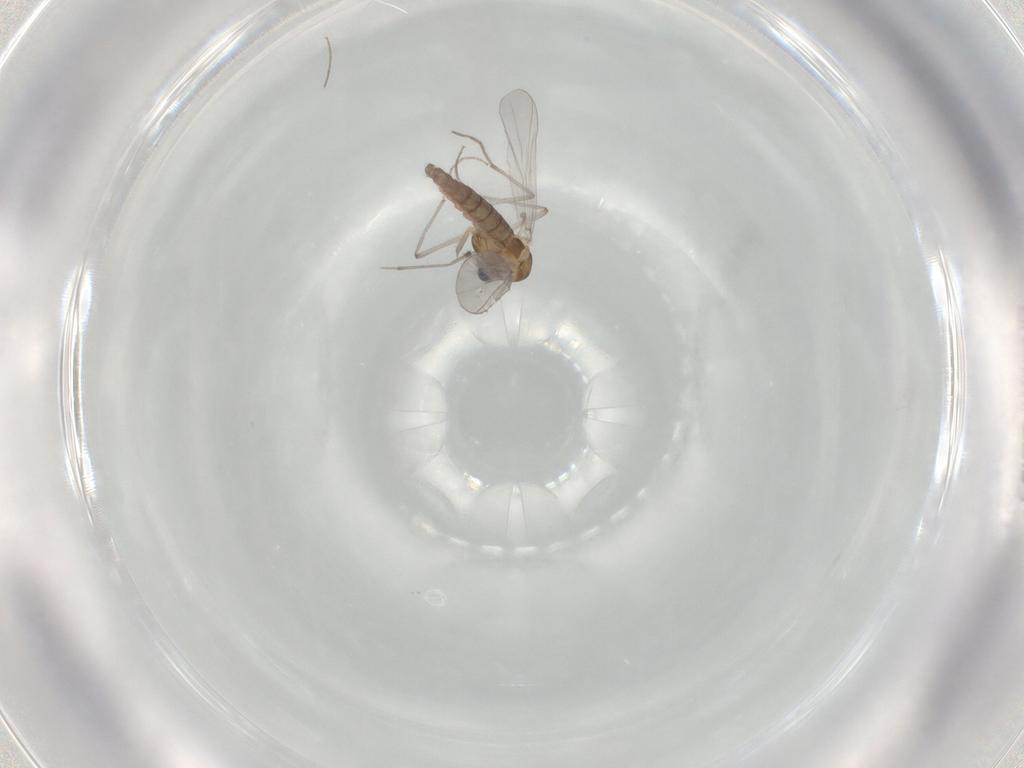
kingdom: Animalia
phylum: Arthropoda
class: Insecta
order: Diptera
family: Chironomidae
